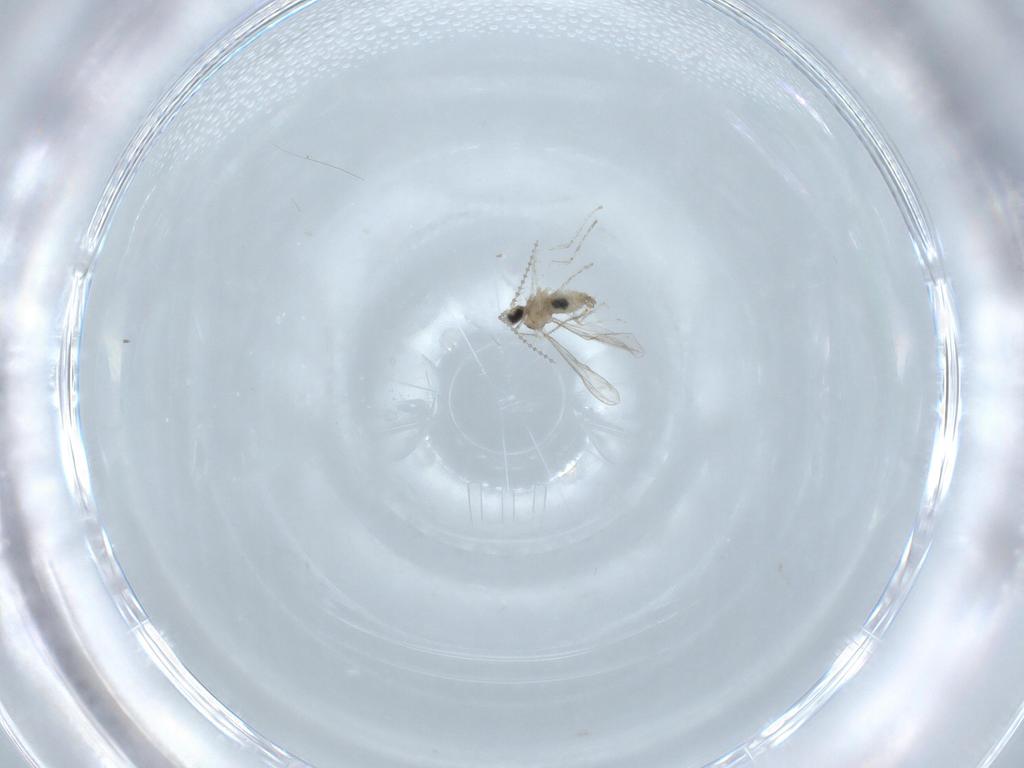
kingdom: Animalia
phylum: Arthropoda
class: Insecta
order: Diptera
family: Cecidomyiidae
